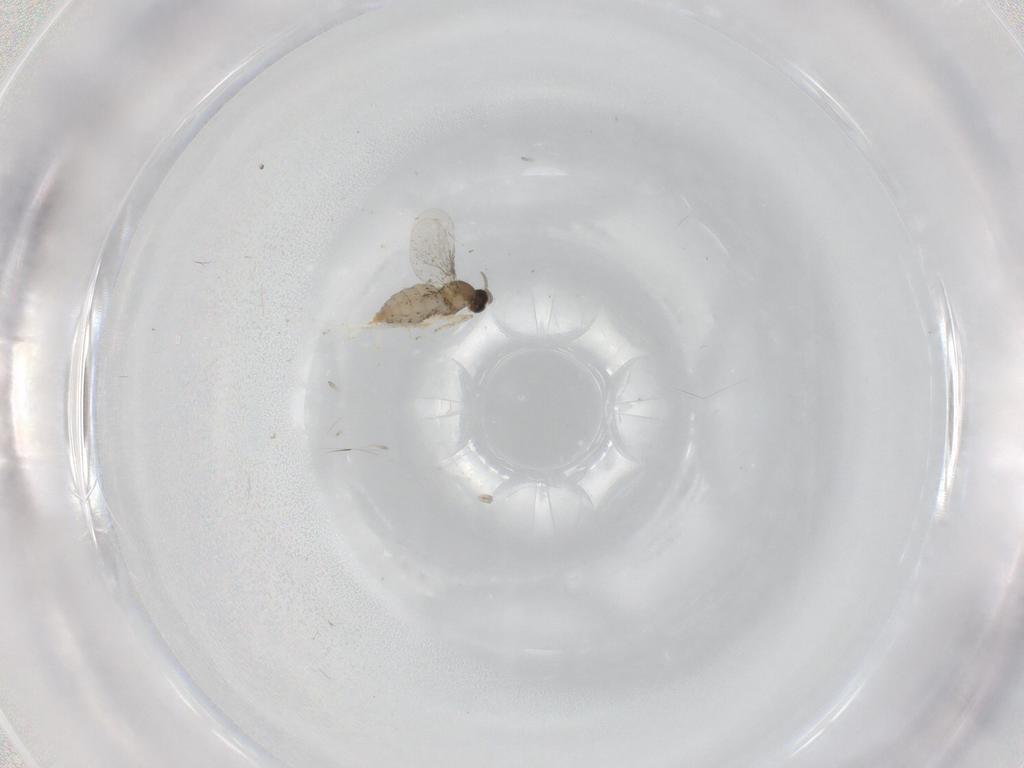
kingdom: Animalia
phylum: Arthropoda
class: Insecta
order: Diptera
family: Cecidomyiidae
